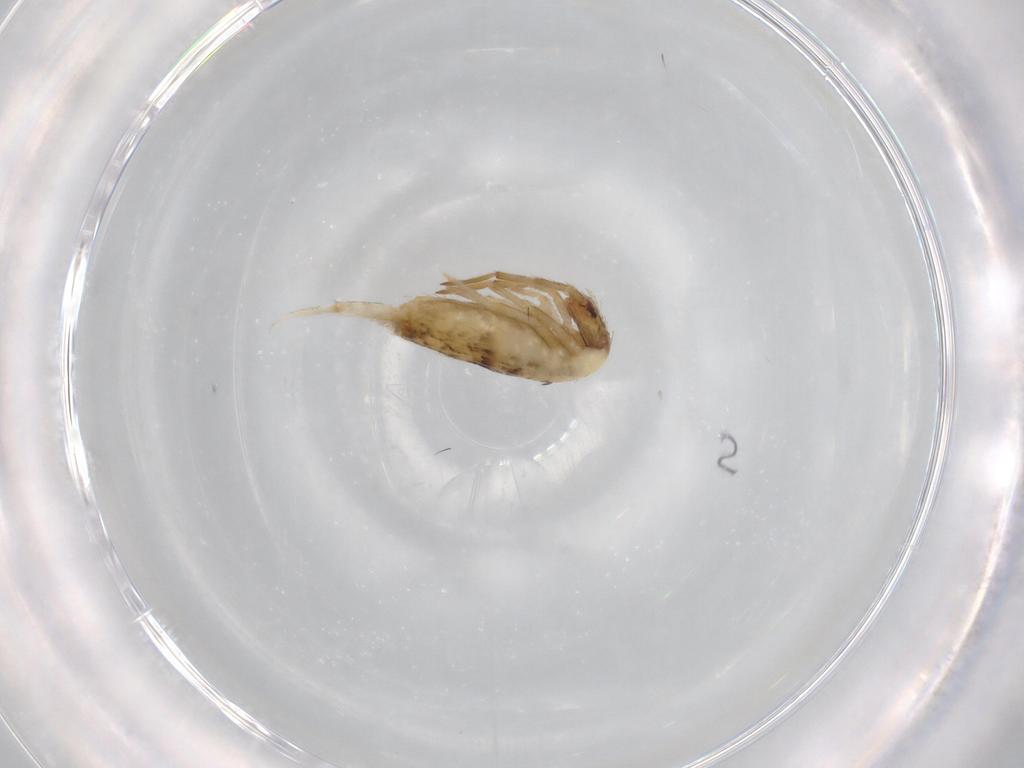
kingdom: Animalia
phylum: Arthropoda
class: Collembola
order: Entomobryomorpha
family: Entomobryidae
